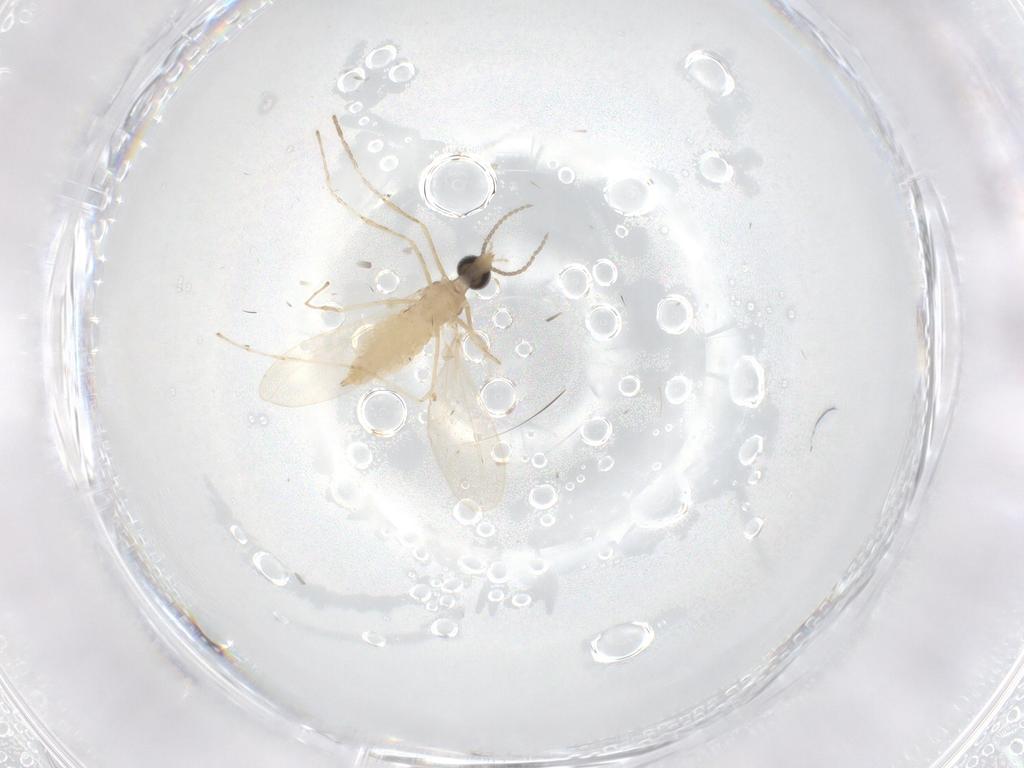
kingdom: Animalia
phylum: Arthropoda
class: Insecta
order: Diptera
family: Cecidomyiidae
